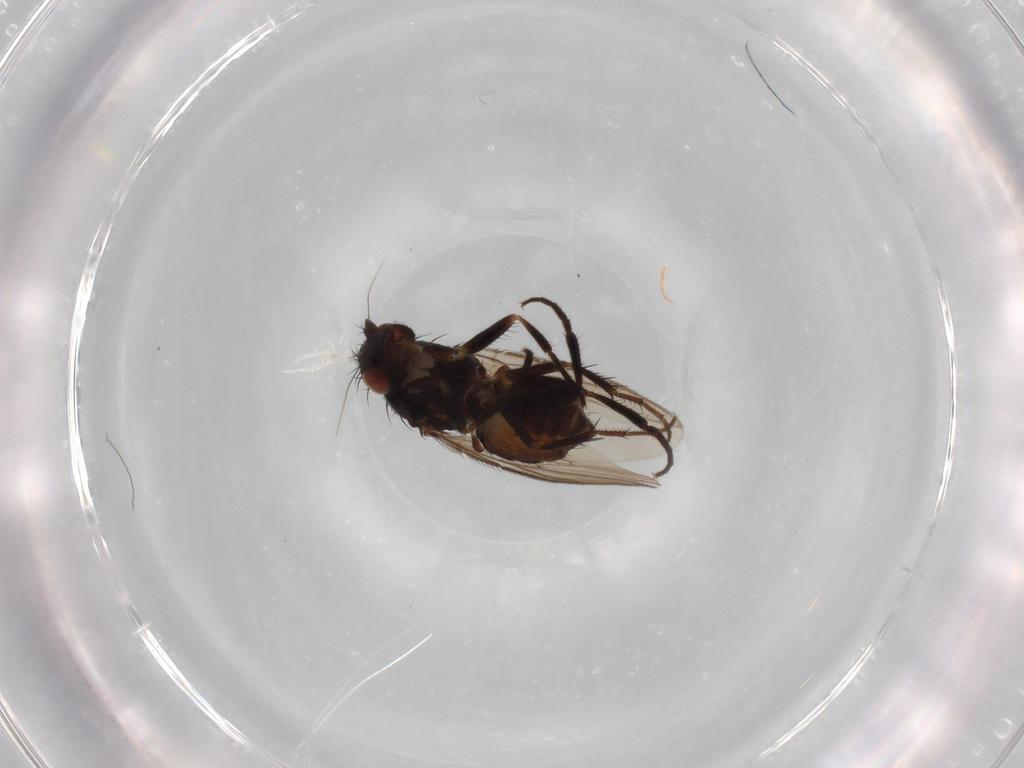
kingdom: Animalia
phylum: Arthropoda
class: Insecta
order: Diptera
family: Sphaeroceridae
